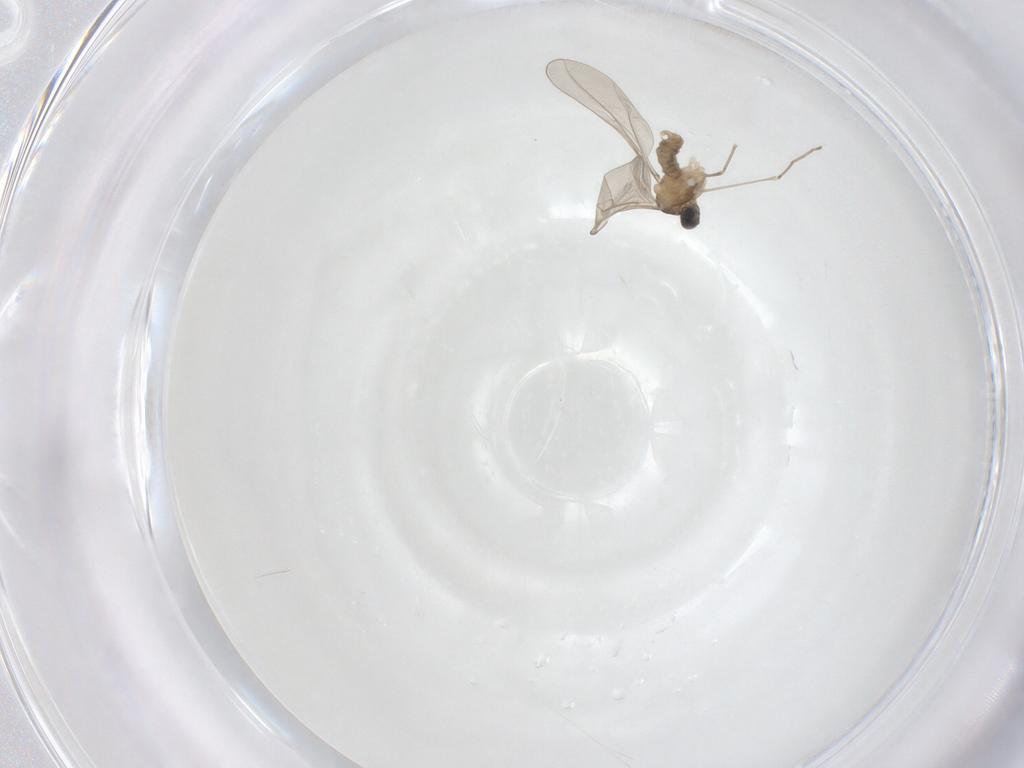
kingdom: Animalia
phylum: Arthropoda
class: Insecta
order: Diptera
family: Cecidomyiidae
